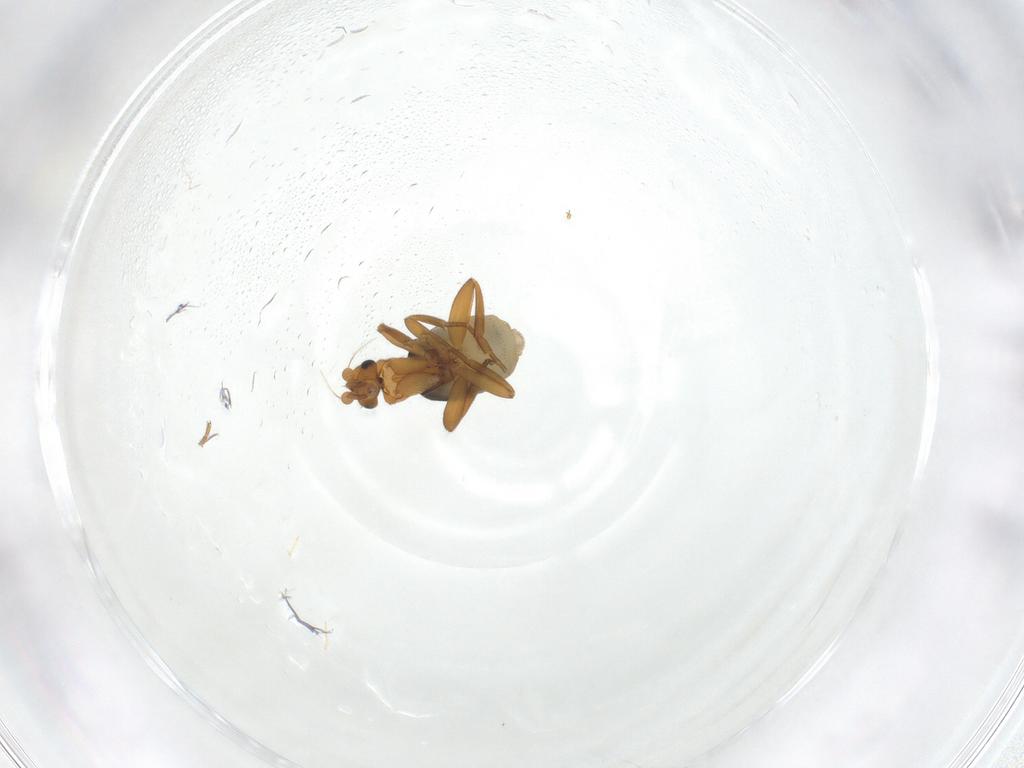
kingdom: Animalia
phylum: Arthropoda
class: Insecta
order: Diptera
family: Phoridae
